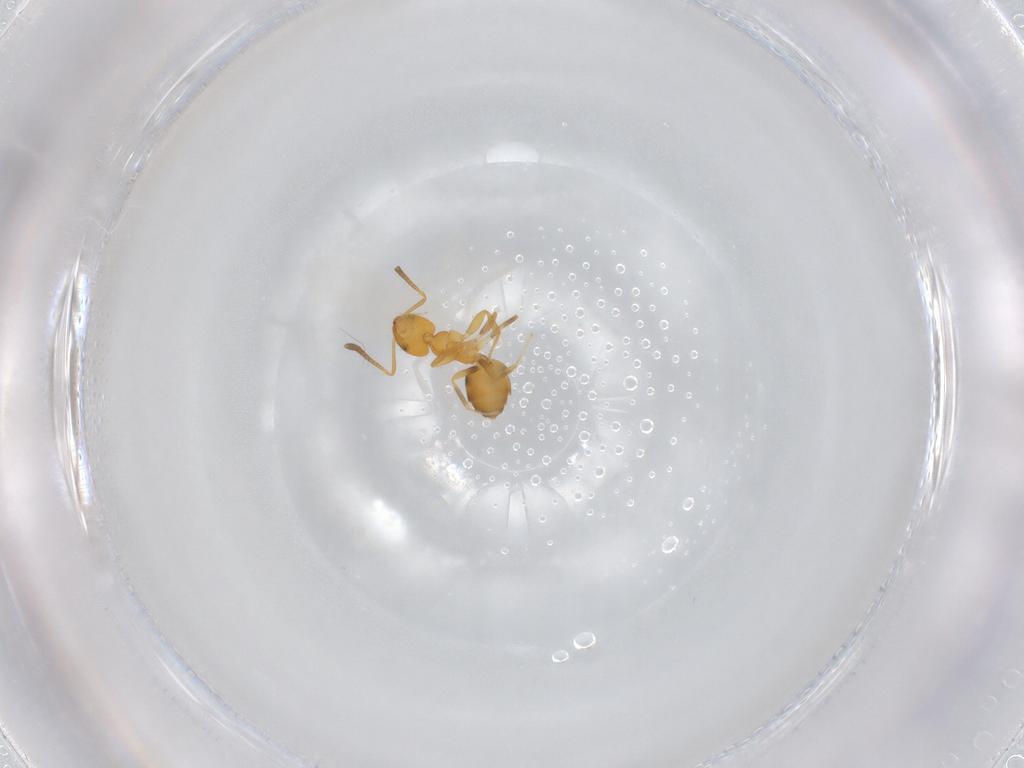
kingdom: Animalia
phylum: Arthropoda
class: Insecta
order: Hymenoptera
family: Formicidae
